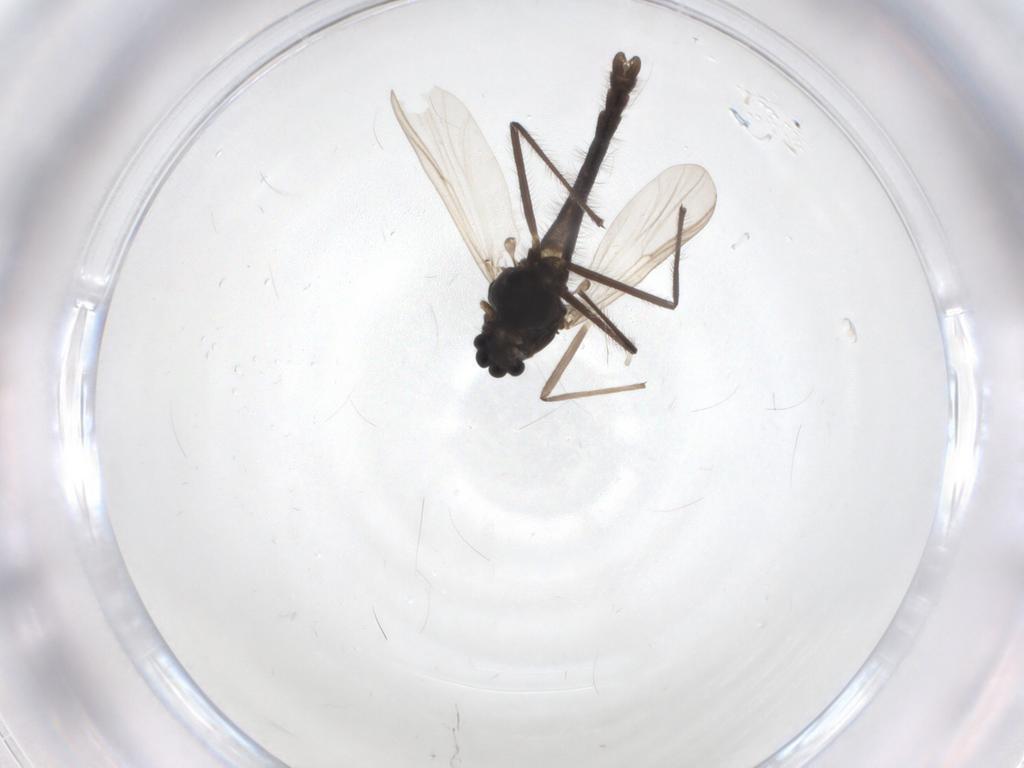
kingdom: Animalia
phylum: Arthropoda
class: Insecta
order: Diptera
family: Chironomidae
